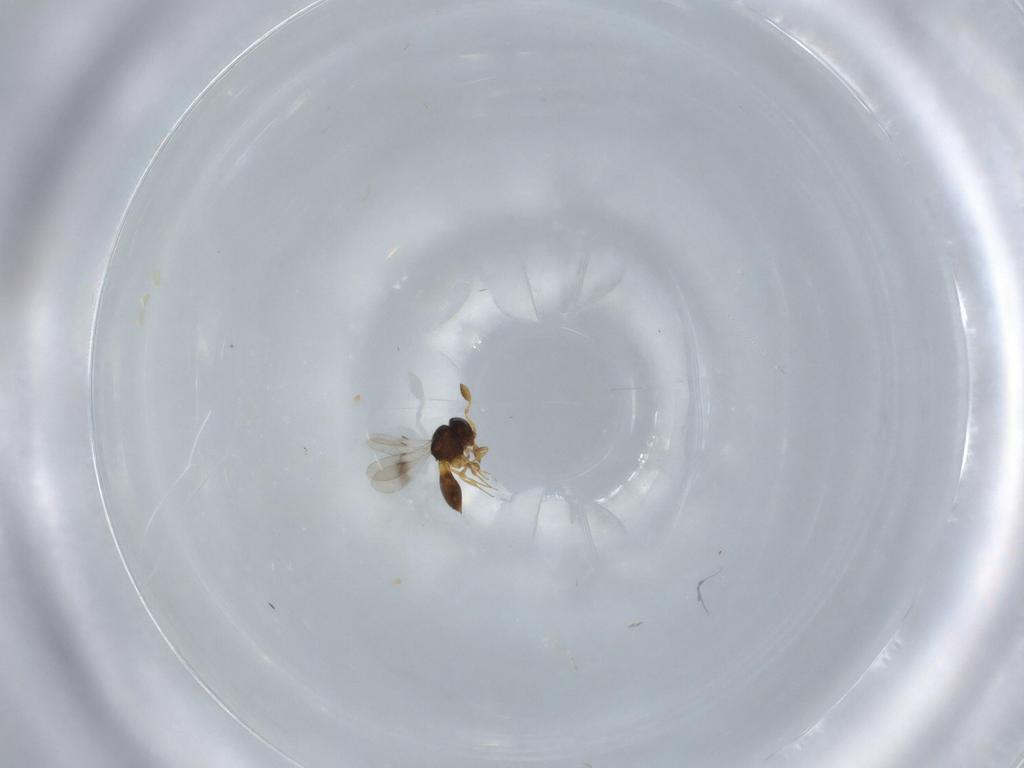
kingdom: Animalia
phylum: Arthropoda
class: Insecta
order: Hymenoptera
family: Scelionidae
